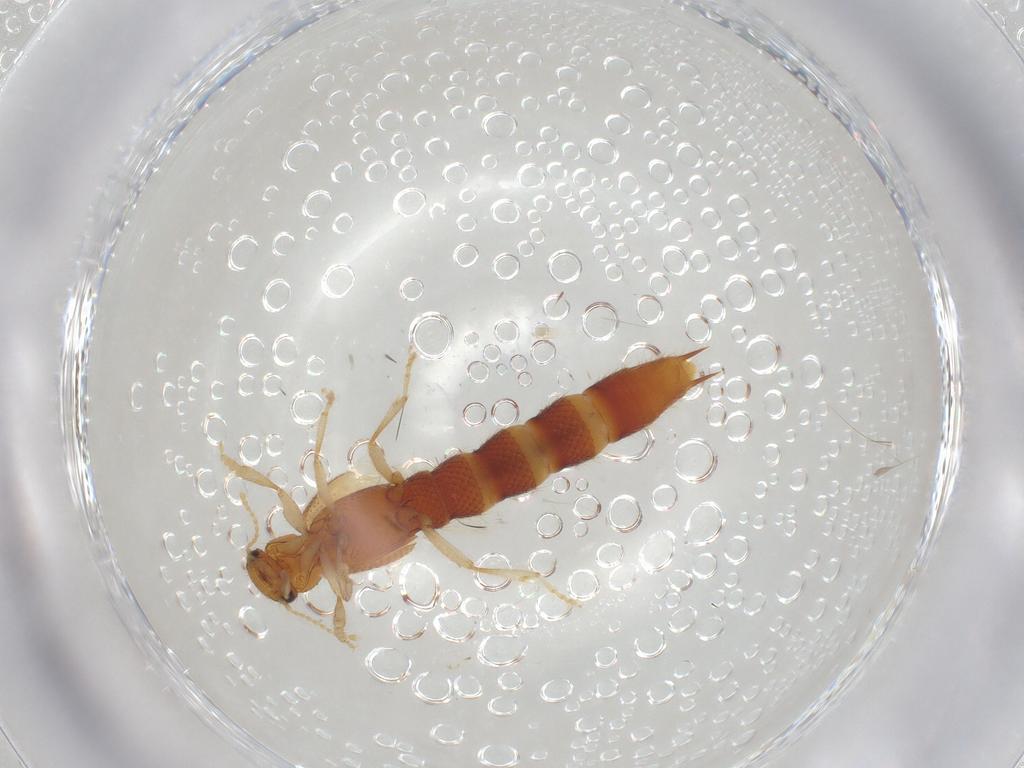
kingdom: Animalia
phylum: Arthropoda
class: Insecta
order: Coleoptera
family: Staphylinidae
